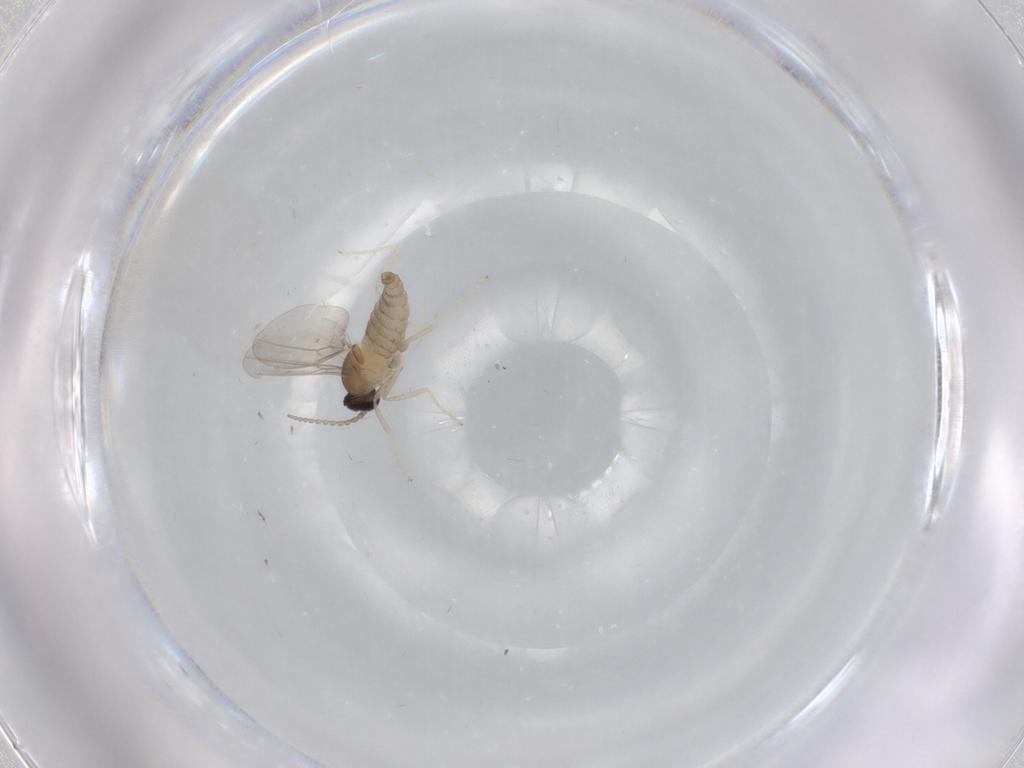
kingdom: Animalia
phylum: Arthropoda
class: Insecta
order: Diptera
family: Cecidomyiidae
